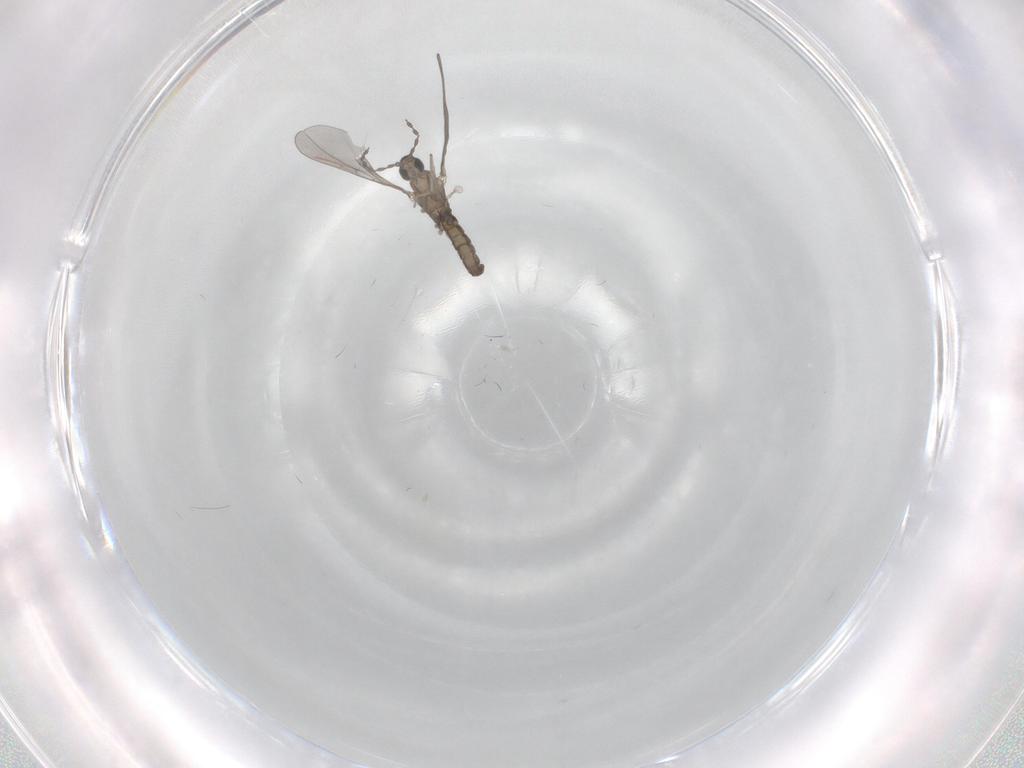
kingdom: Animalia
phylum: Arthropoda
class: Insecta
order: Diptera
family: Cecidomyiidae
